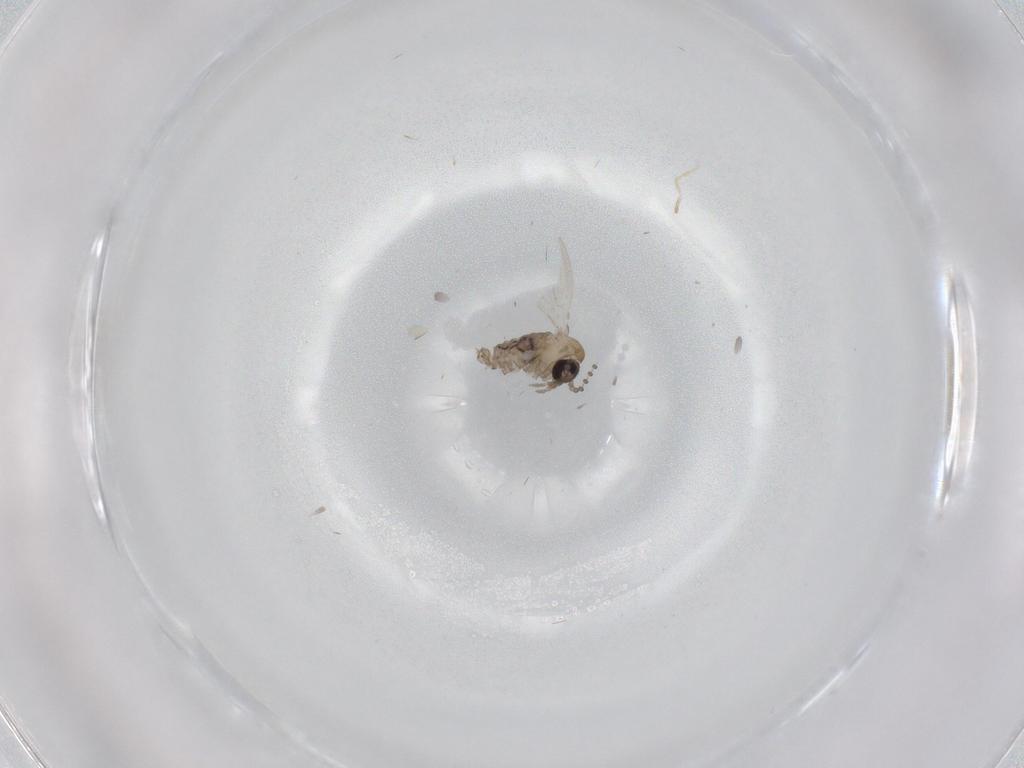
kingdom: Animalia
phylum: Arthropoda
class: Insecta
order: Diptera
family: Psychodidae
